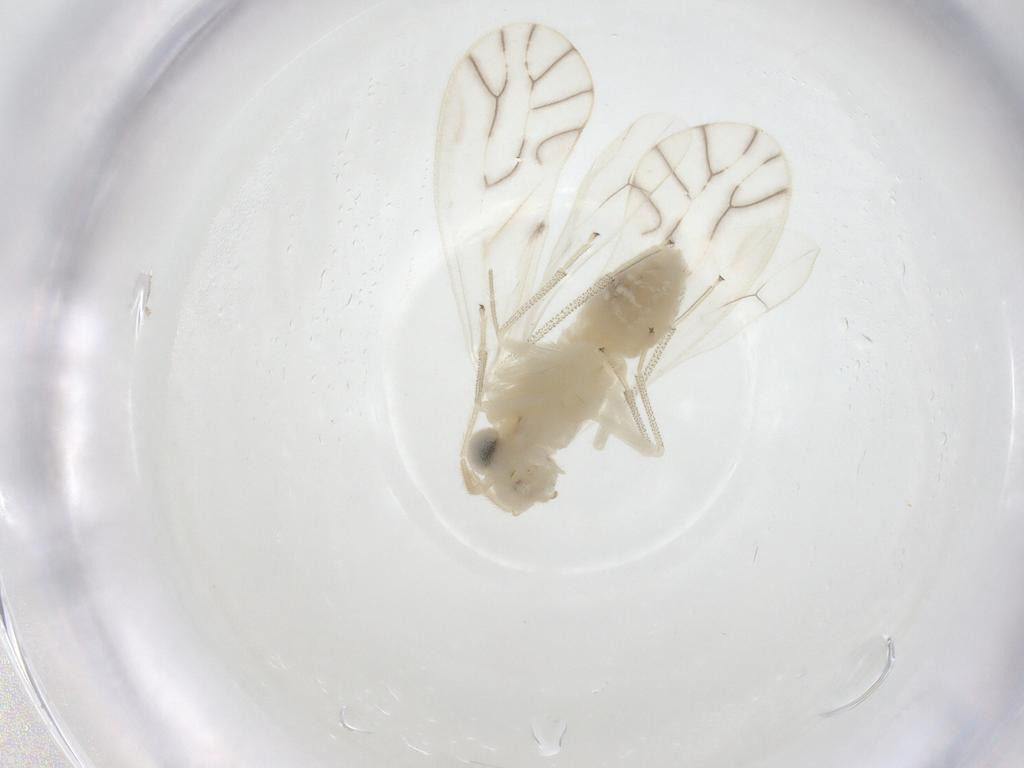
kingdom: Animalia
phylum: Arthropoda
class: Insecta
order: Psocodea
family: Caeciliusidae
